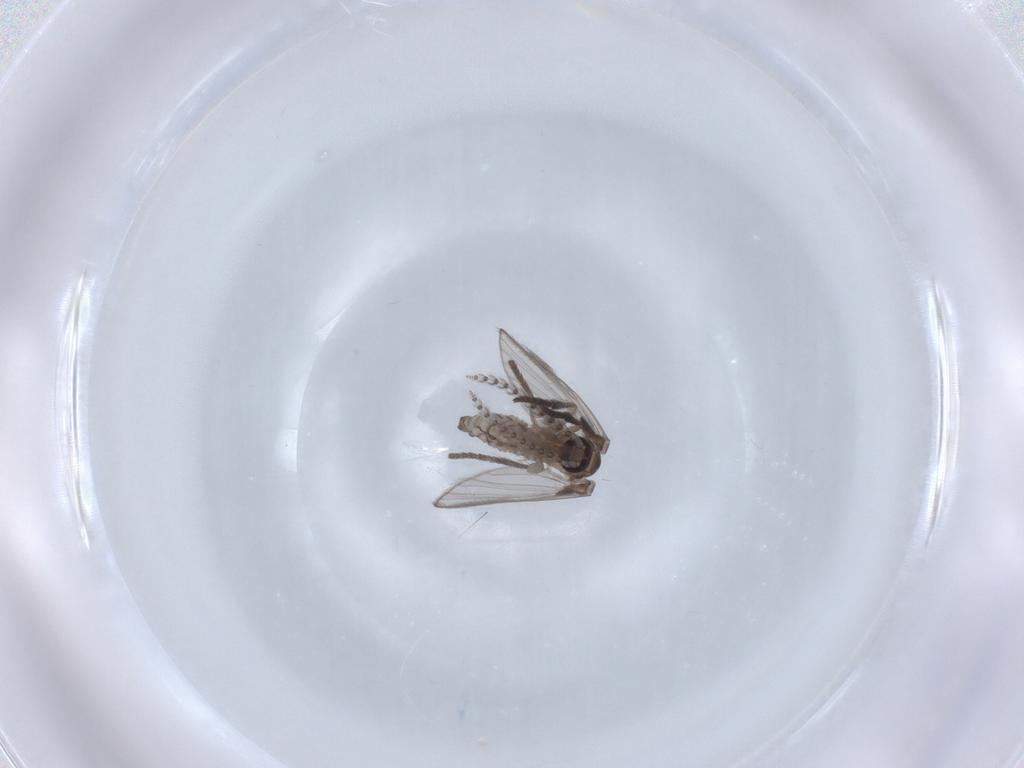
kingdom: Animalia
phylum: Arthropoda
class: Insecta
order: Diptera
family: Psychodidae
